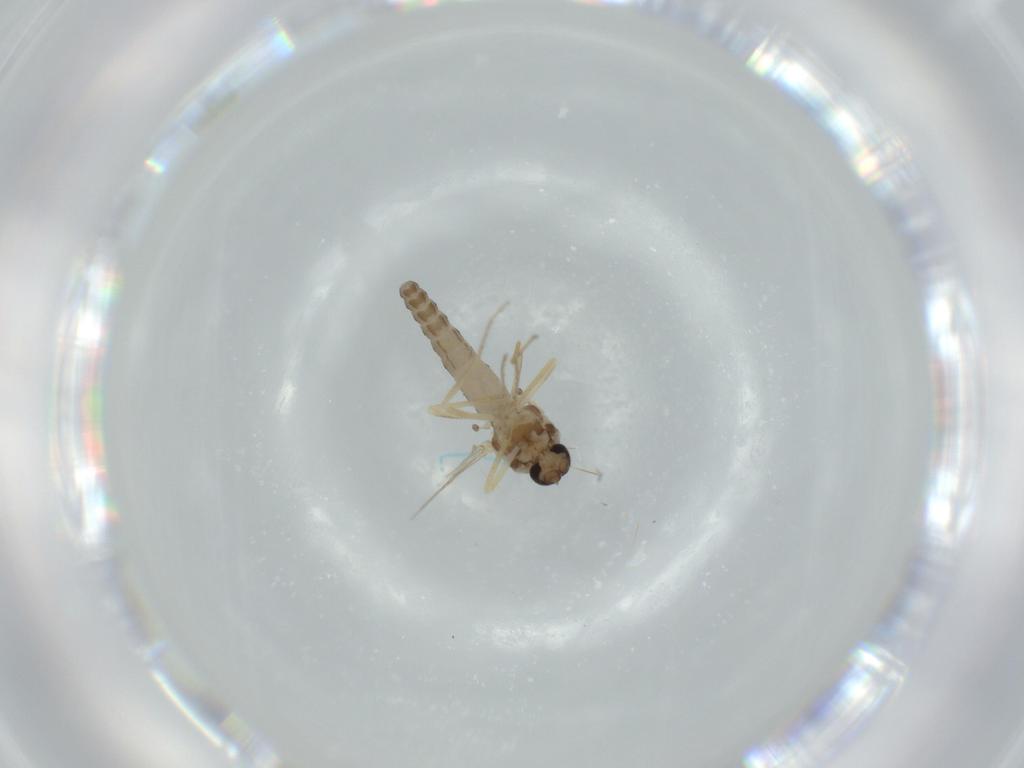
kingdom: Animalia
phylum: Arthropoda
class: Insecta
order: Diptera
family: Ceratopogonidae
